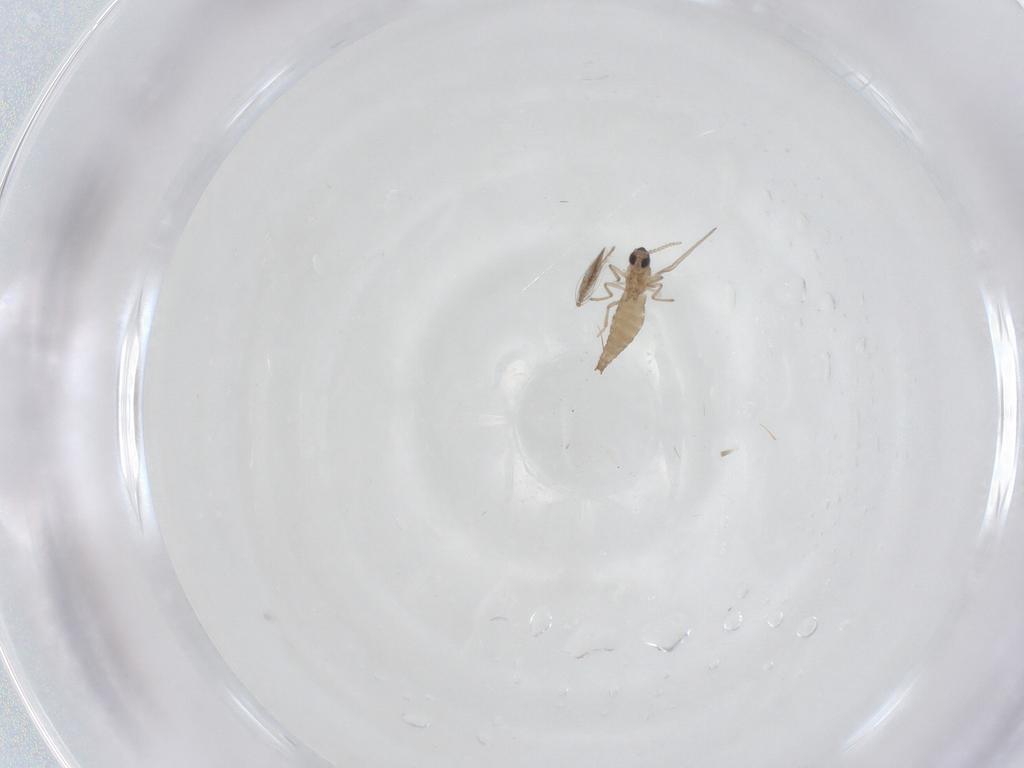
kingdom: Animalia
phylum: Arthropoda
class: Insecta
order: Diptera
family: Cecidomyiidae
